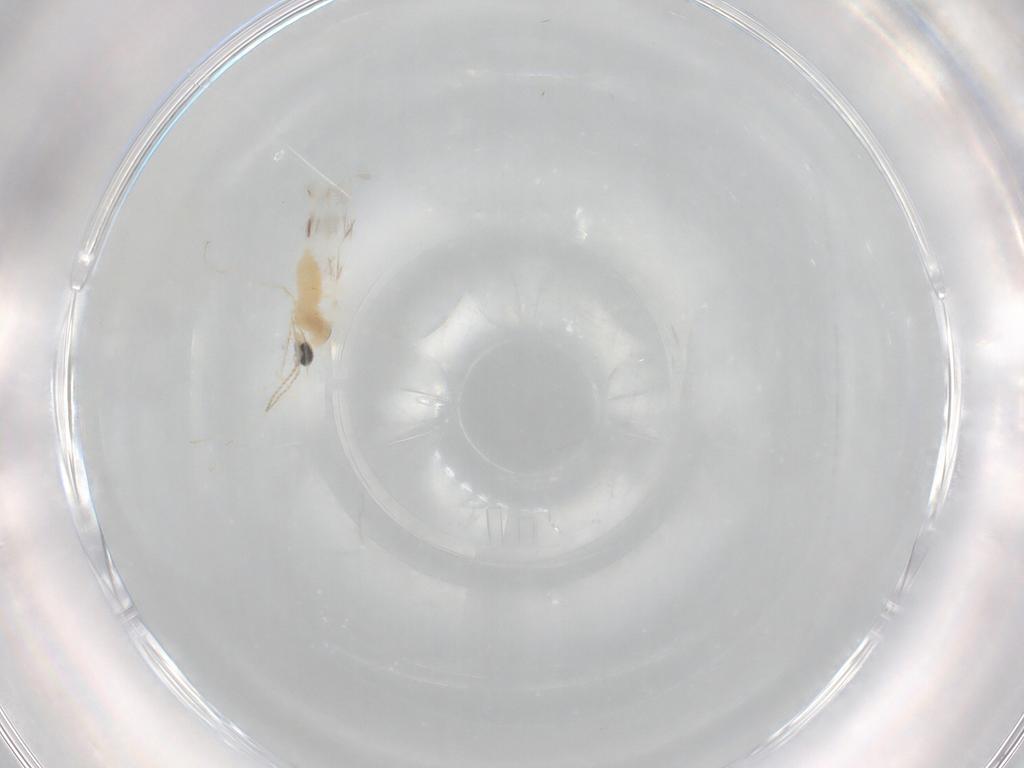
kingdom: Animalia
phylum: Arthropoda
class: Insecta
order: Diptera
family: Cecidomyiidae
